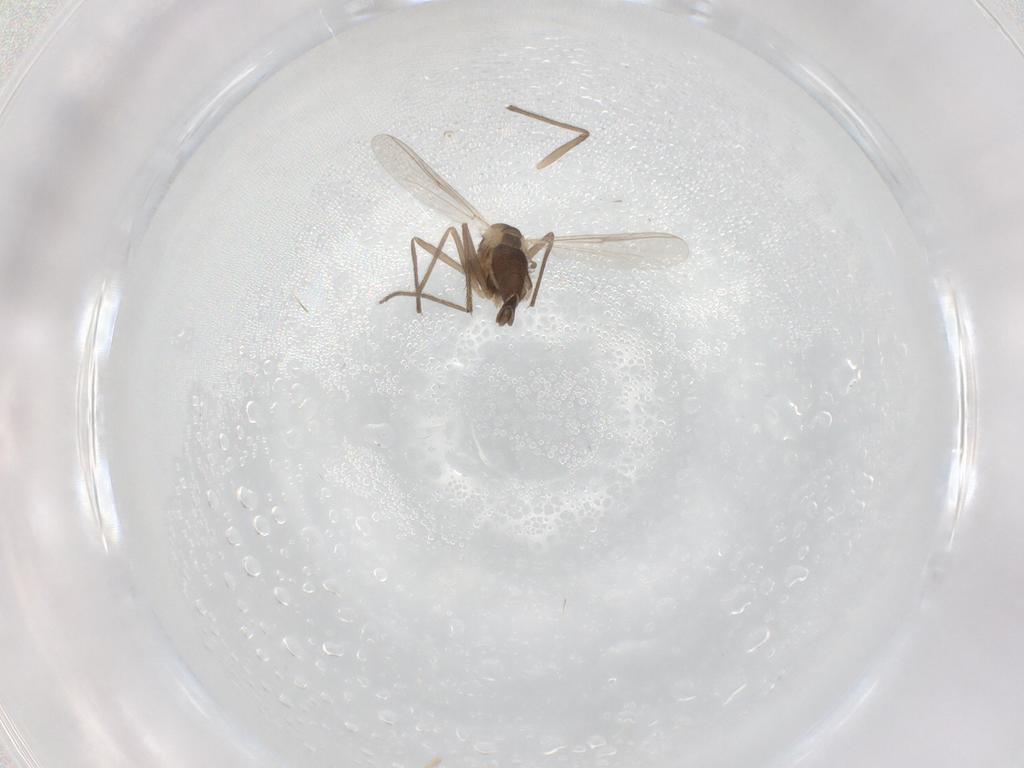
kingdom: Animalia
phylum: Arthropoda
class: Insecta
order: Diptera
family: Chironomidae
